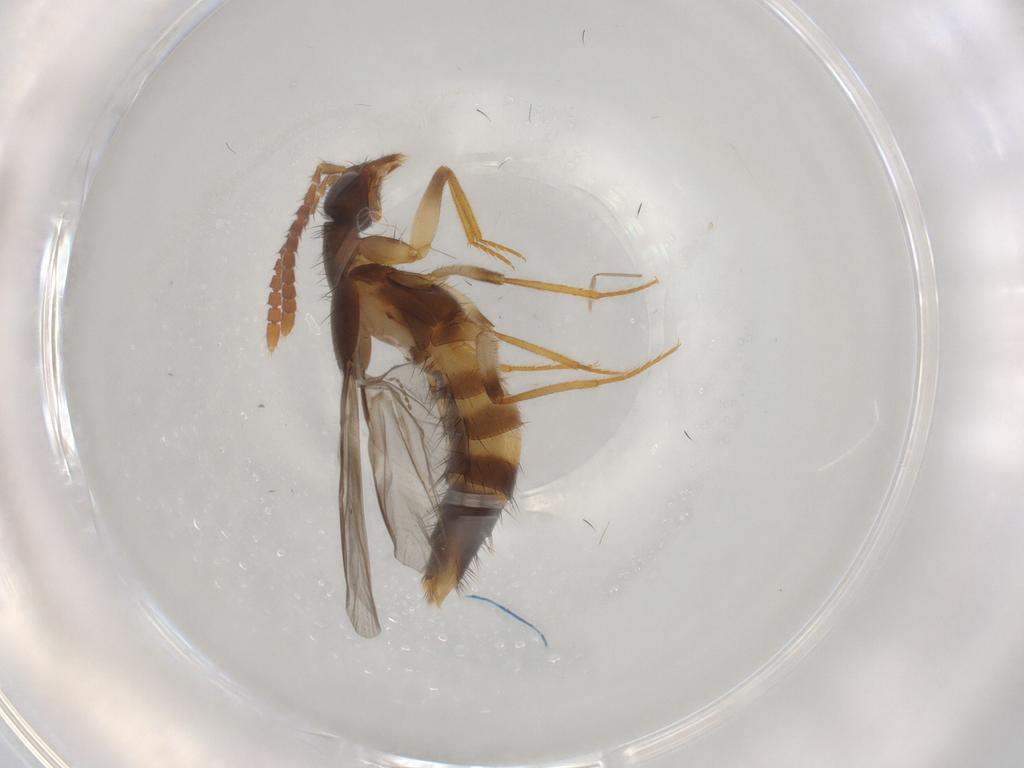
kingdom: Animalia
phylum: Arthropoda
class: Insecta
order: Coleoptera
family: Staphylinidae
